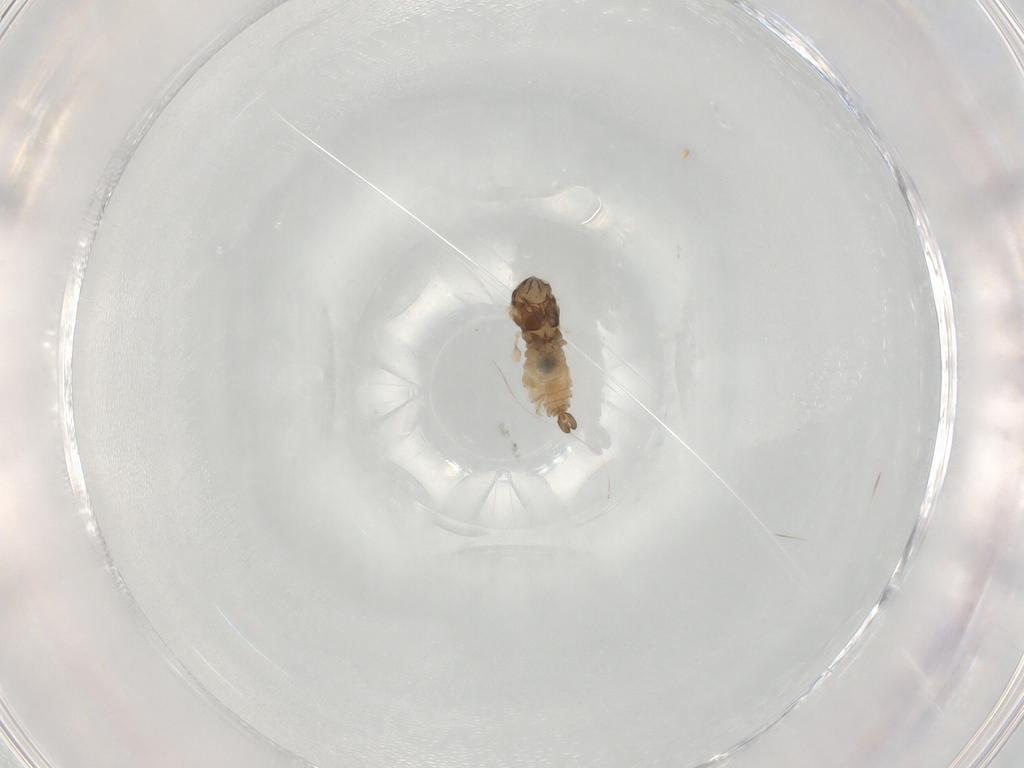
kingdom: Animalia
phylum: Arthropoda
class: Insecta
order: Diptera
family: Cecidomyiidae
